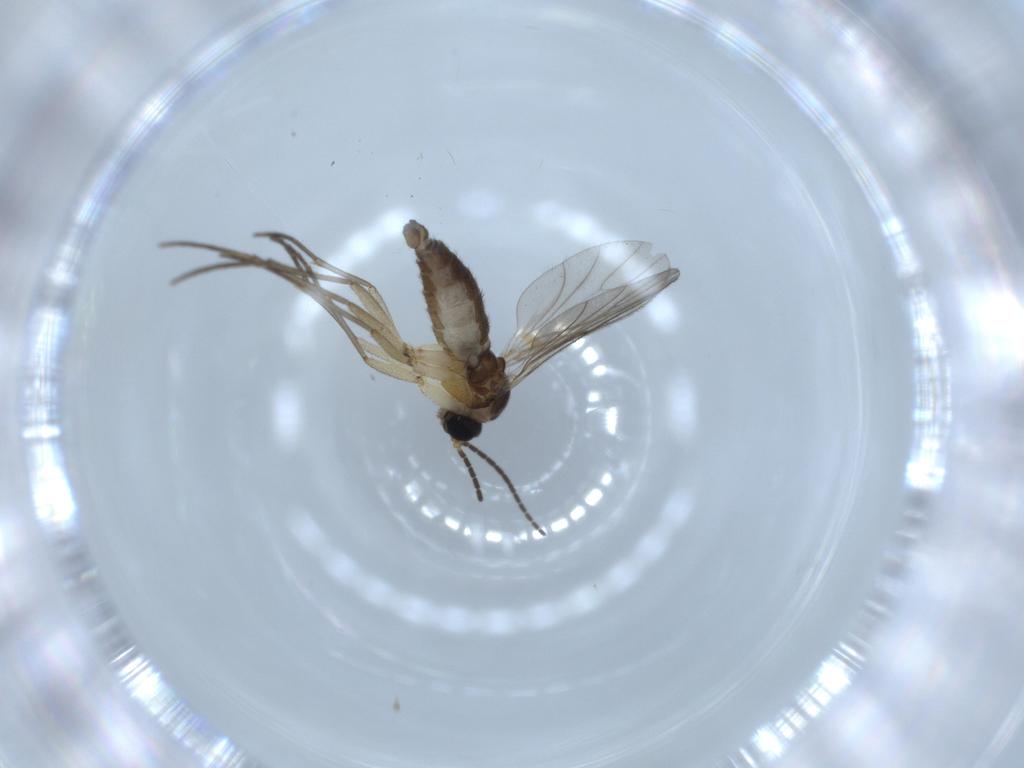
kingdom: Animalia
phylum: Arthropoda
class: Insecta
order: Diptera
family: Sciaridae
